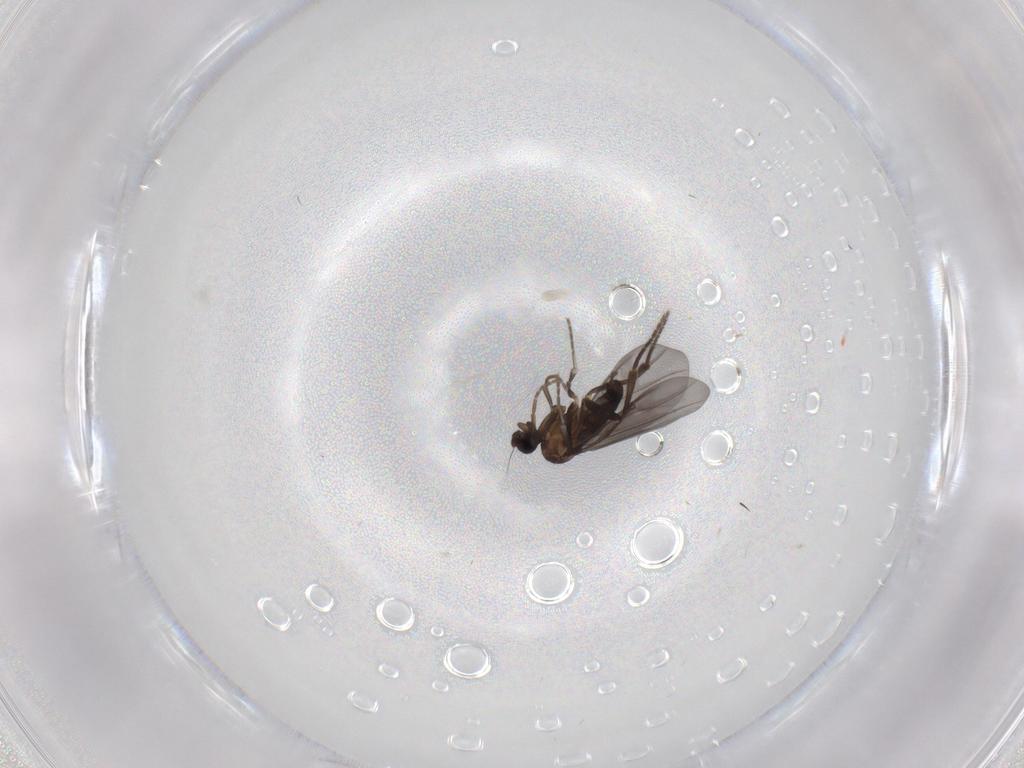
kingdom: Animalia
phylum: Arthropoda
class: Insecta
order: Diptera
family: Phoridae
